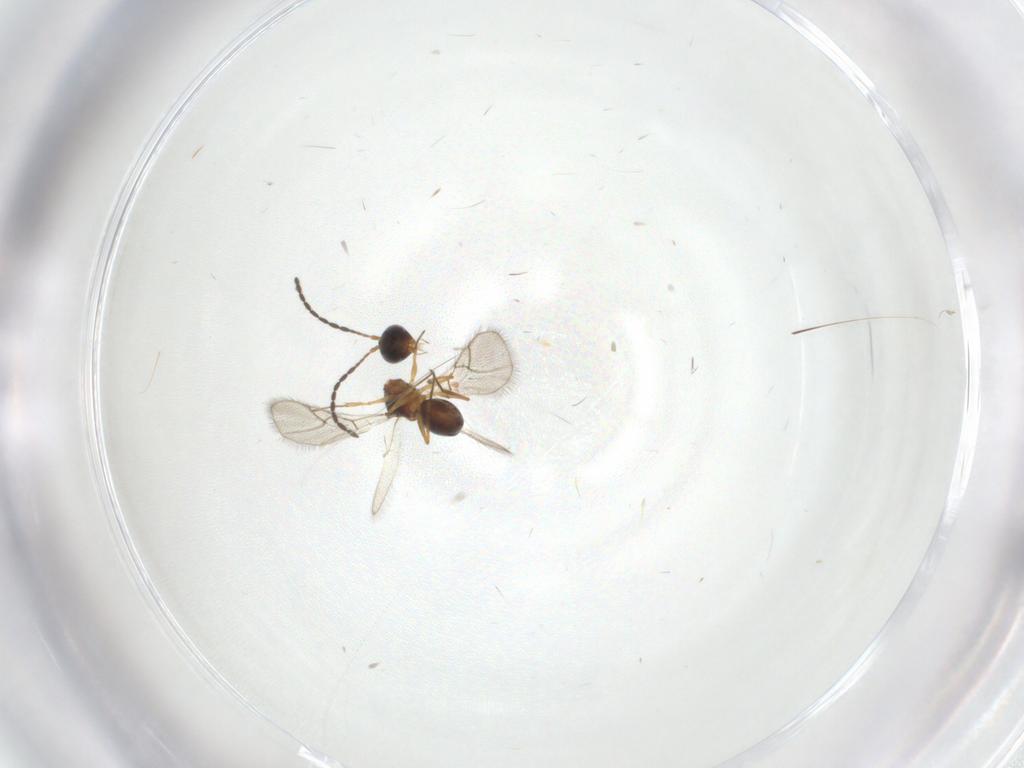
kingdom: Animalia
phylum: Arthropoda
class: Insecta
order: Hymenoptera
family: Figitidae
